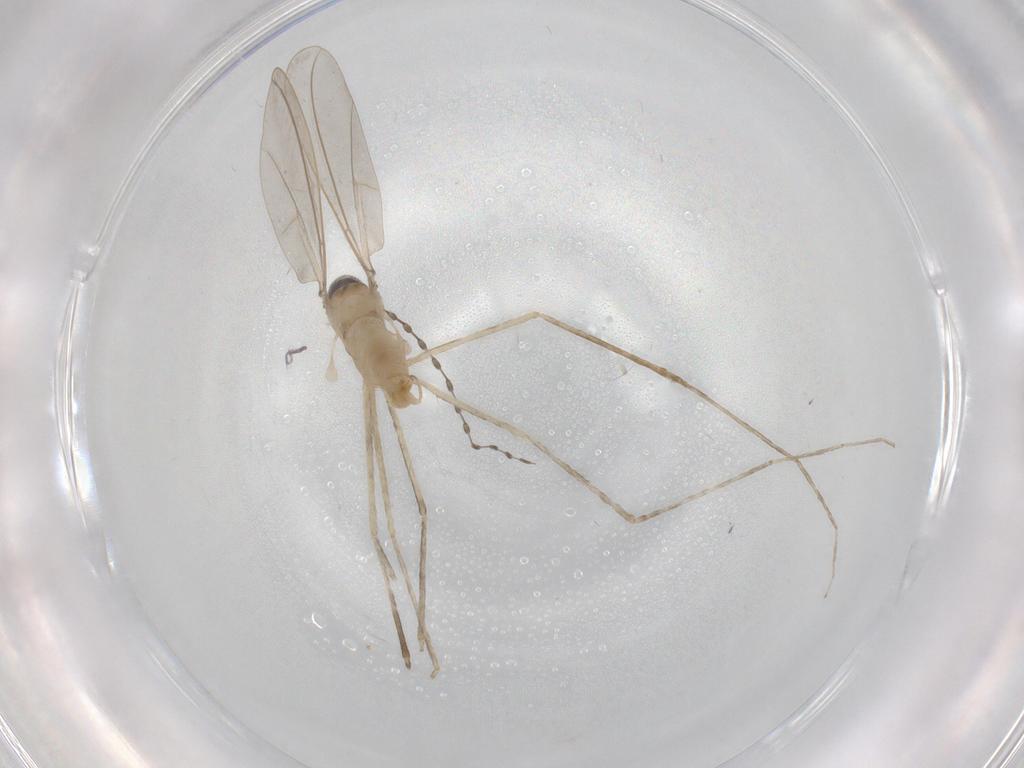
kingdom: Animalia
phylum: Arthropoda
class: Insecta
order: Diptera
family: Cecidomyiidae
